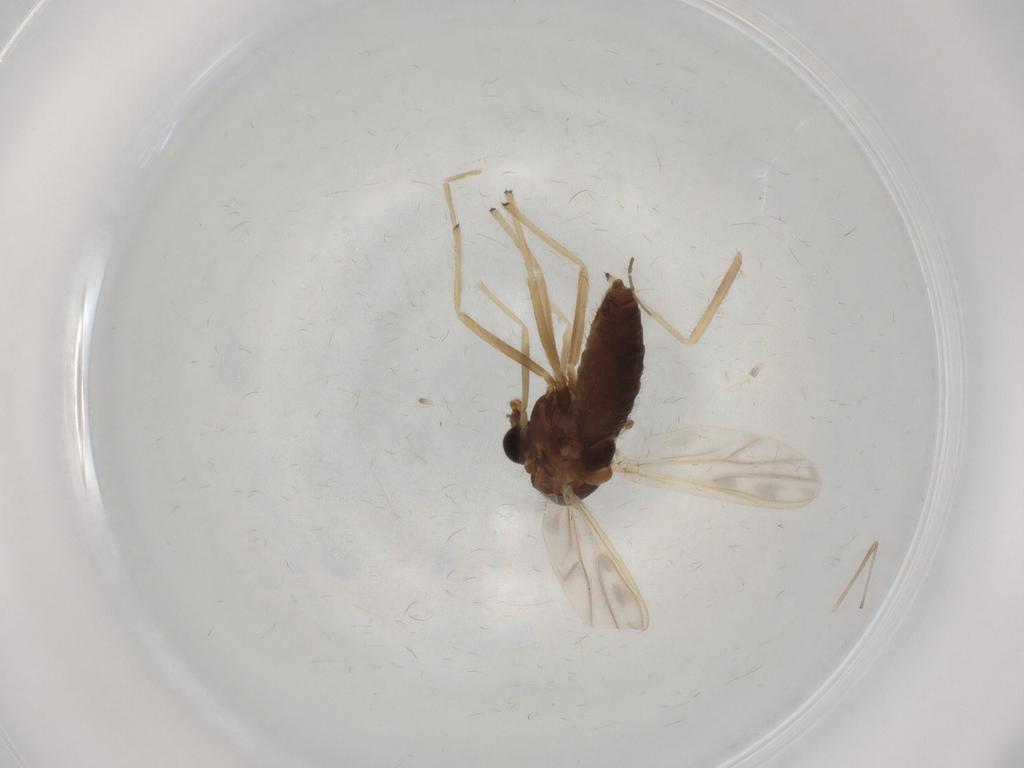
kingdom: Animalia
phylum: Arthropoda
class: Insecta
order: Diptera
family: Chironomidae
